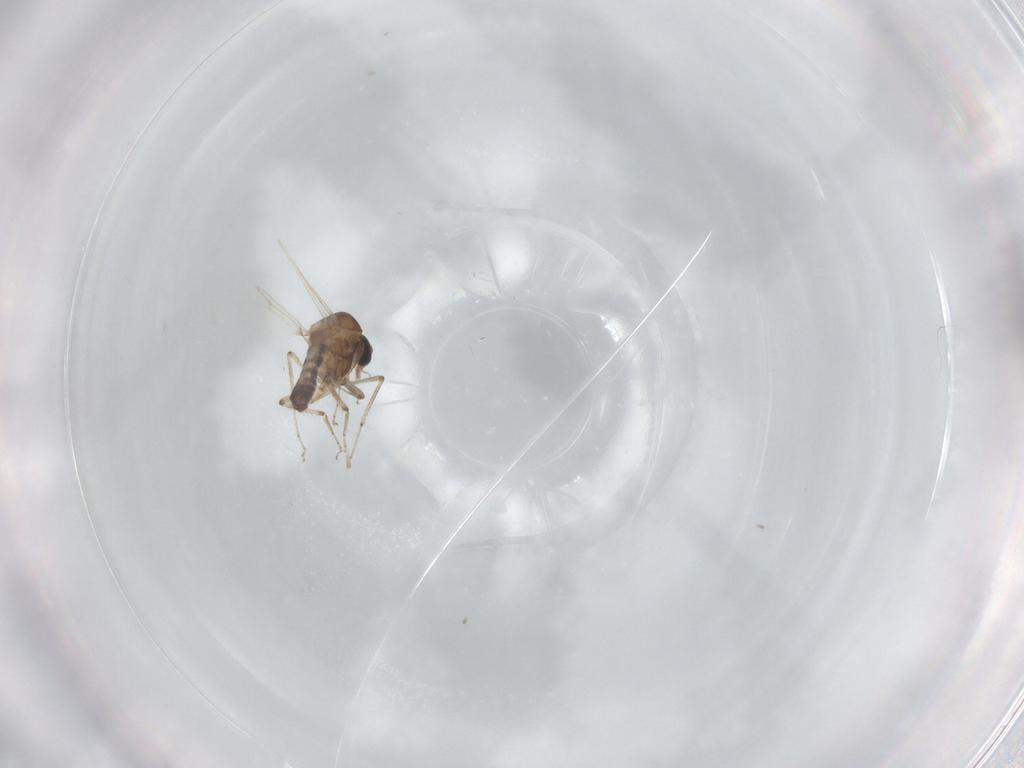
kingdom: Animalia
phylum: Arthropoda
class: Insecta
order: Diptera
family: Ceratopogonidae
